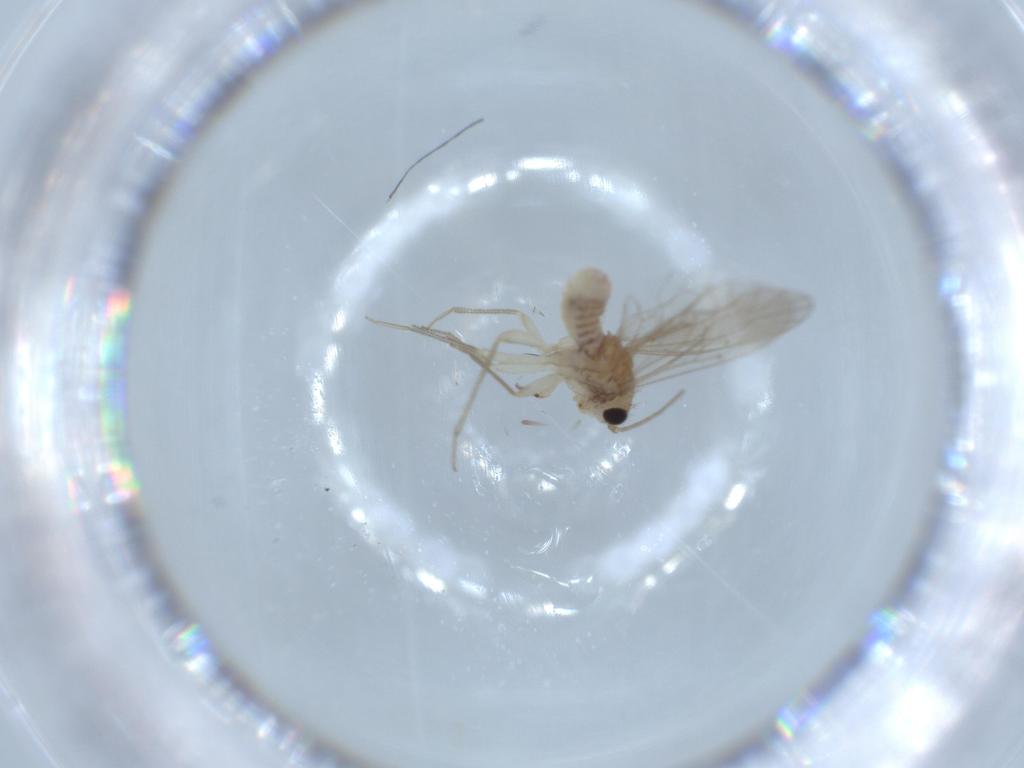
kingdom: Animalia
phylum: Arthropoda
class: Insecta
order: Psocodea
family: Caeciliusidae
